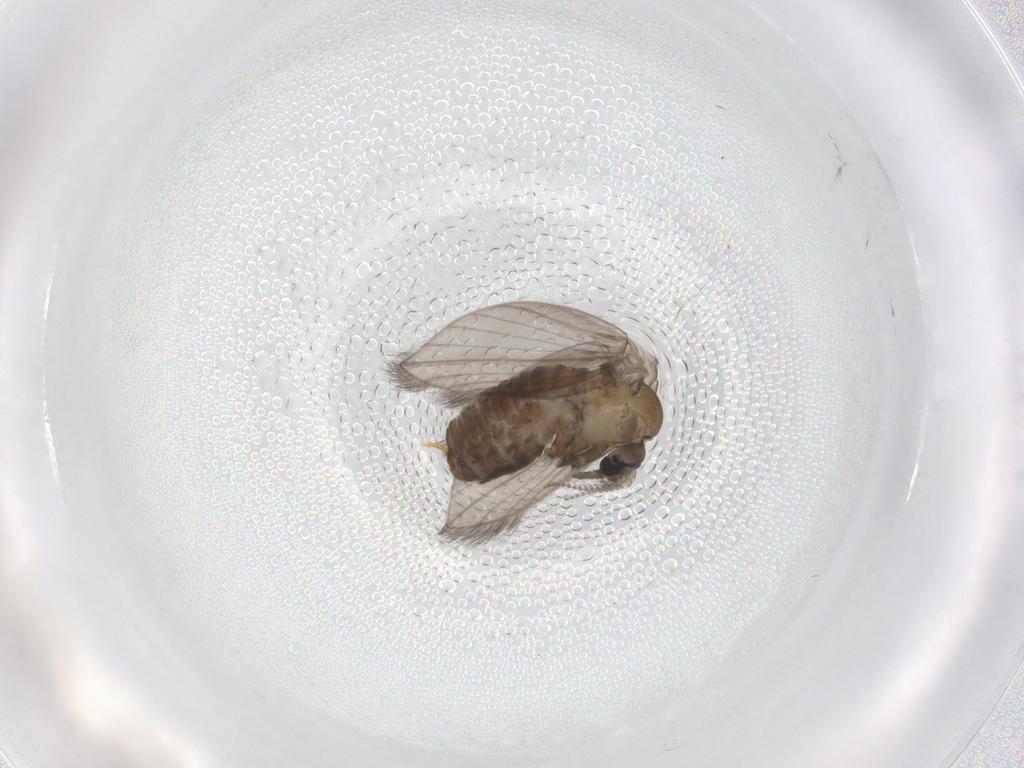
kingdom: Animalia
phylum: Arthropoda
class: Insecta
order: Diptera
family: Psychodidae
